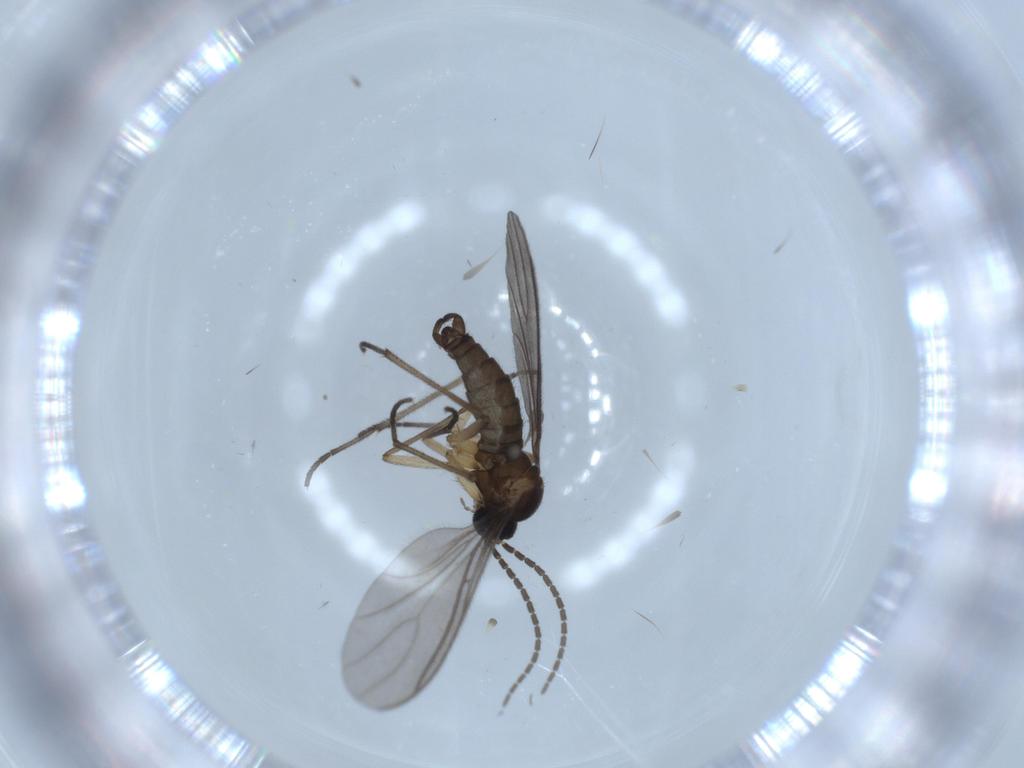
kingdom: Animalia
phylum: Arthropoda
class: Insecta
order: Diptera
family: Sciaridae
